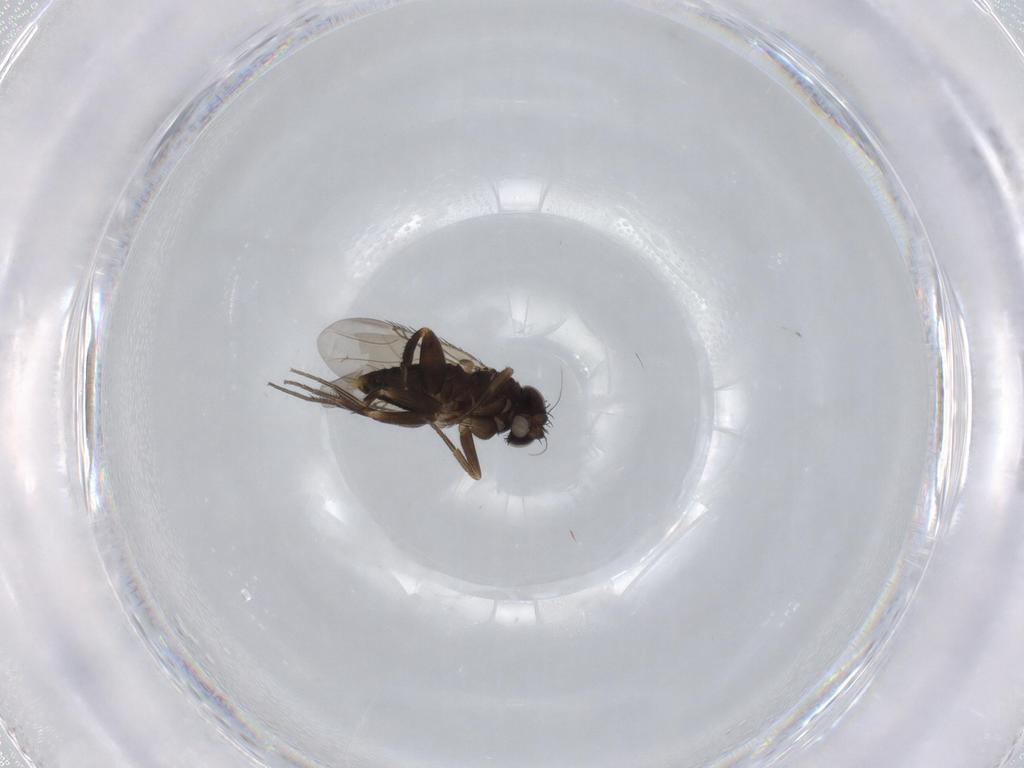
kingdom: Animalia
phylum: Arthropoda
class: Insecta
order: Diptera
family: Phoridae
